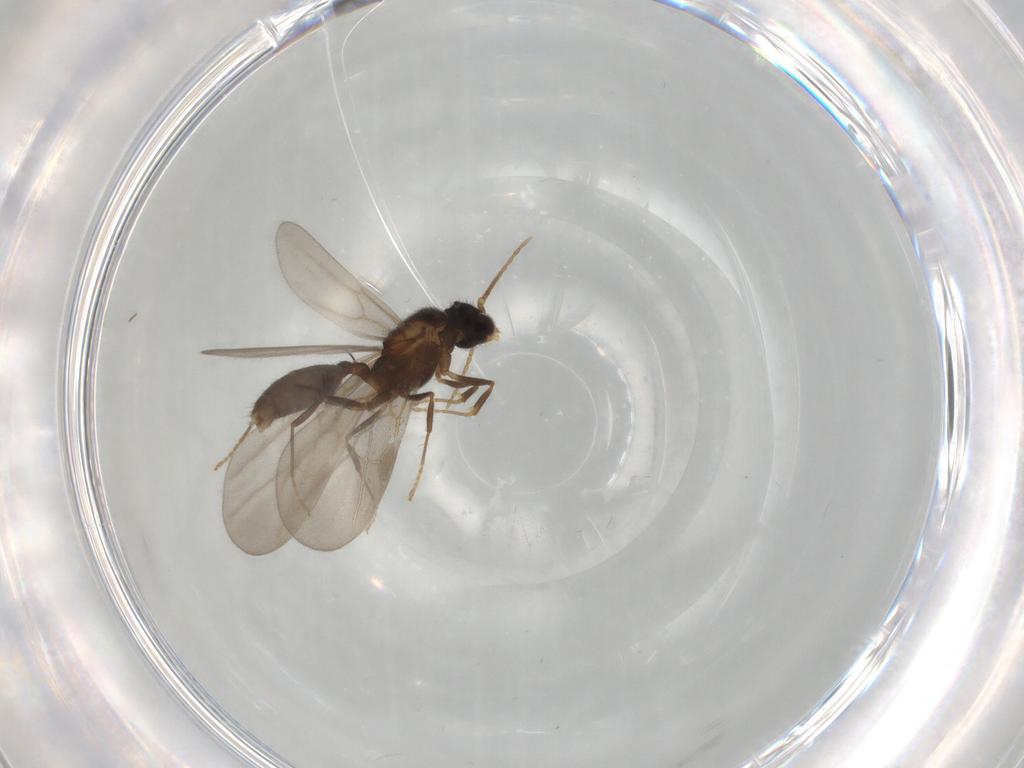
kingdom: Animalia
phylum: Arthropoda
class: Insecta
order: Hymenoptera
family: Formicidae
